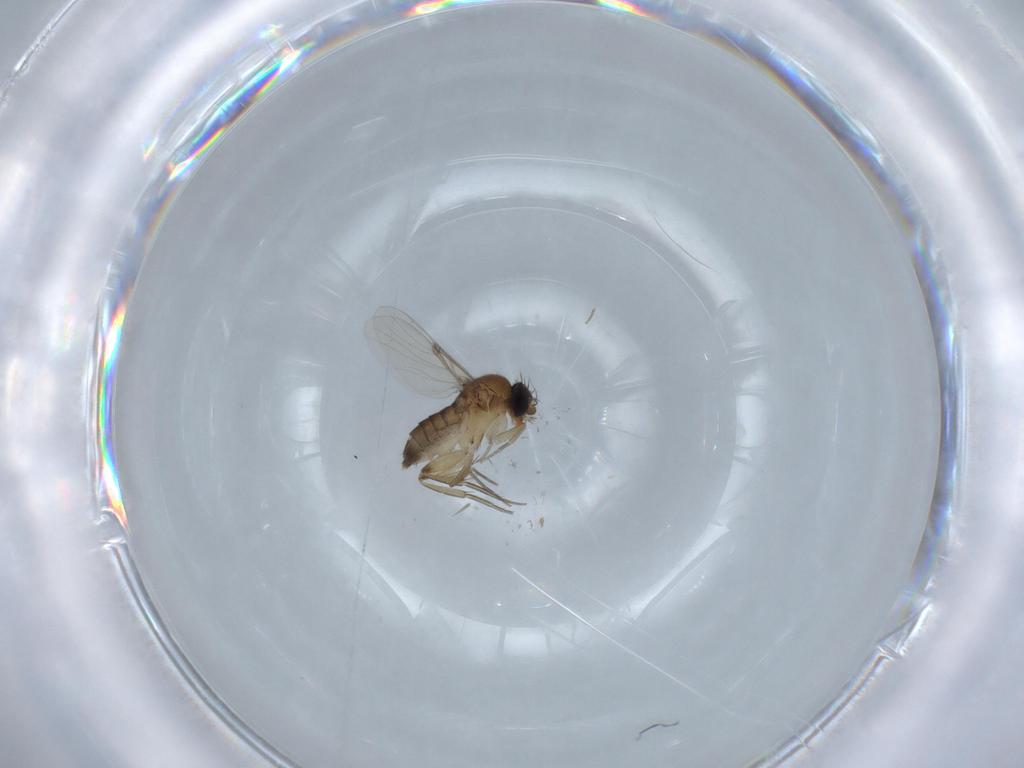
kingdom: Animalia
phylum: Arthropoda
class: Insecta
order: Diptera
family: Phoridae
